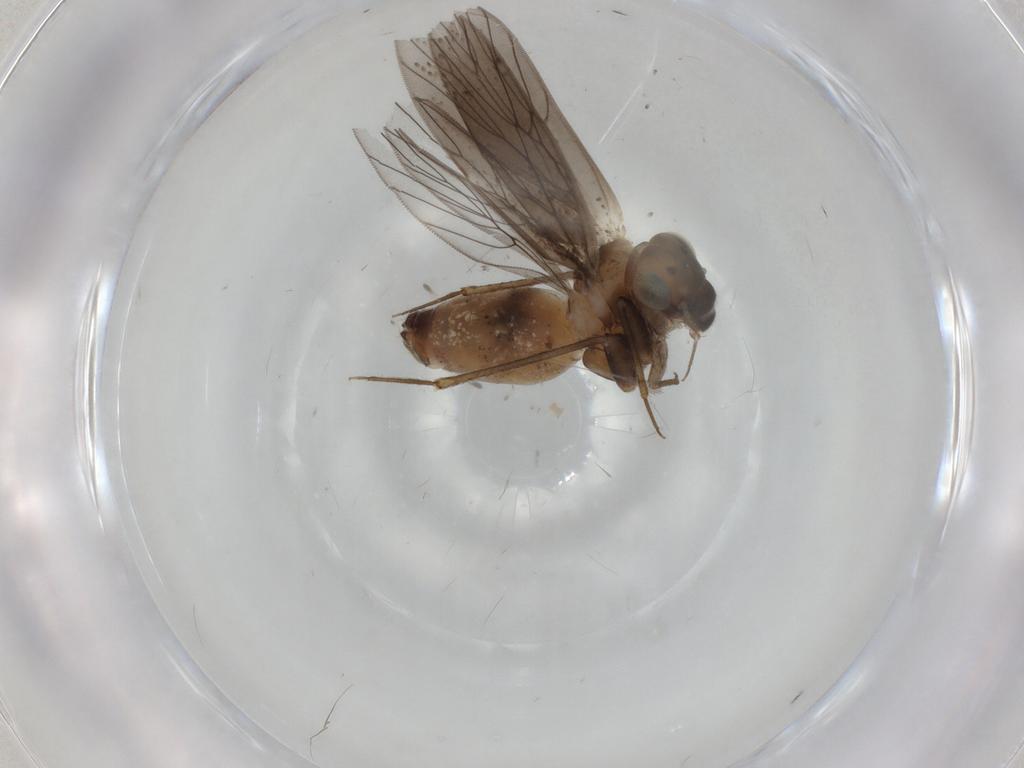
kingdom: Animalia
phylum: Arthropoda
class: Insecta
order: Psocodea
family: Lepidopsocidae
